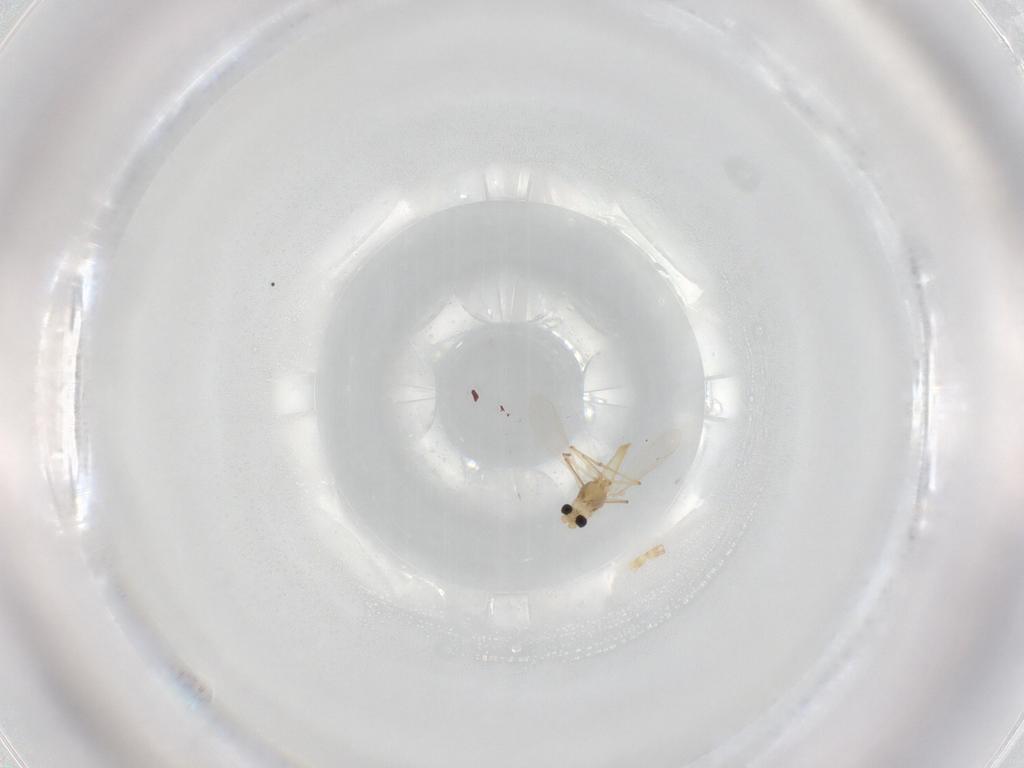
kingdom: Animalia
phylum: Arthropoda
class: Insecta
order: Diptera
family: Chironomidae
